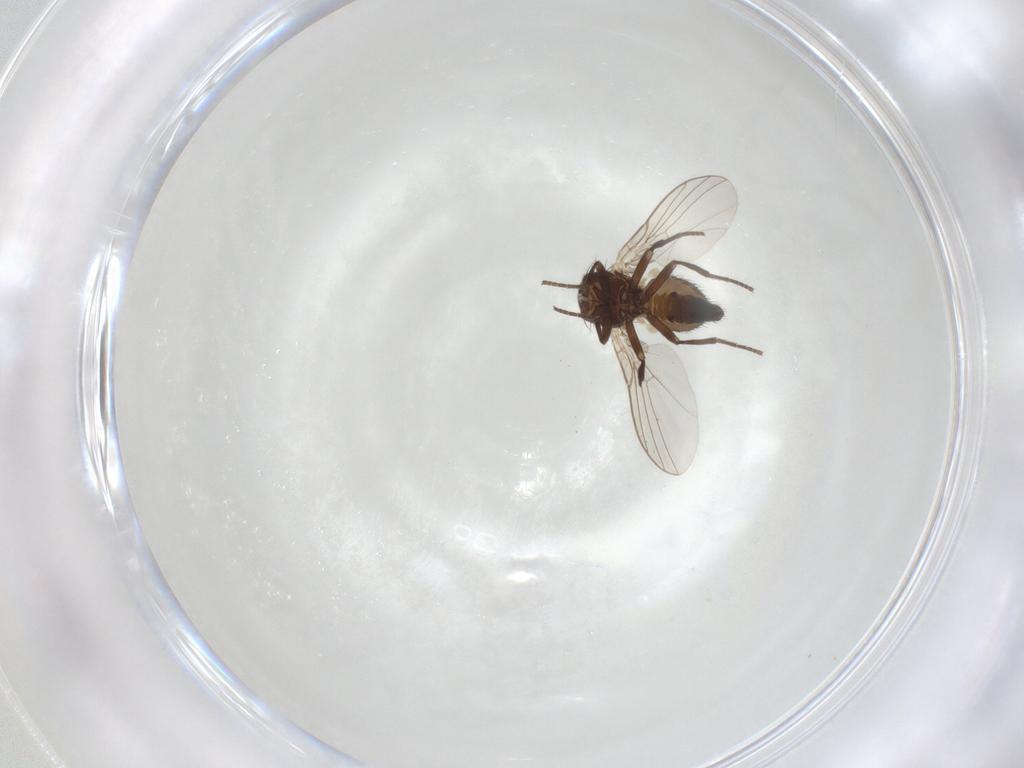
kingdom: Animalia
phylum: Arthropoda
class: Insecta
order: Diptera
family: Agromyzidae
